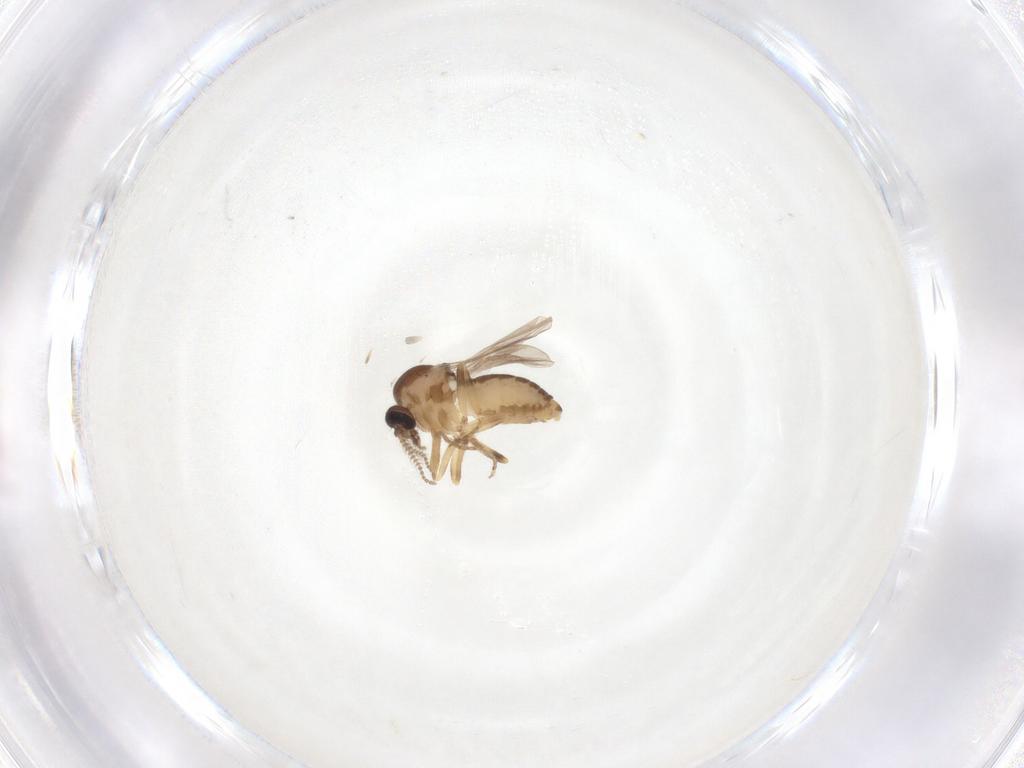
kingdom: Animalia
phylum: Arthropoda
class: Insecta
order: Diptera
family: Ceratopogonidae
